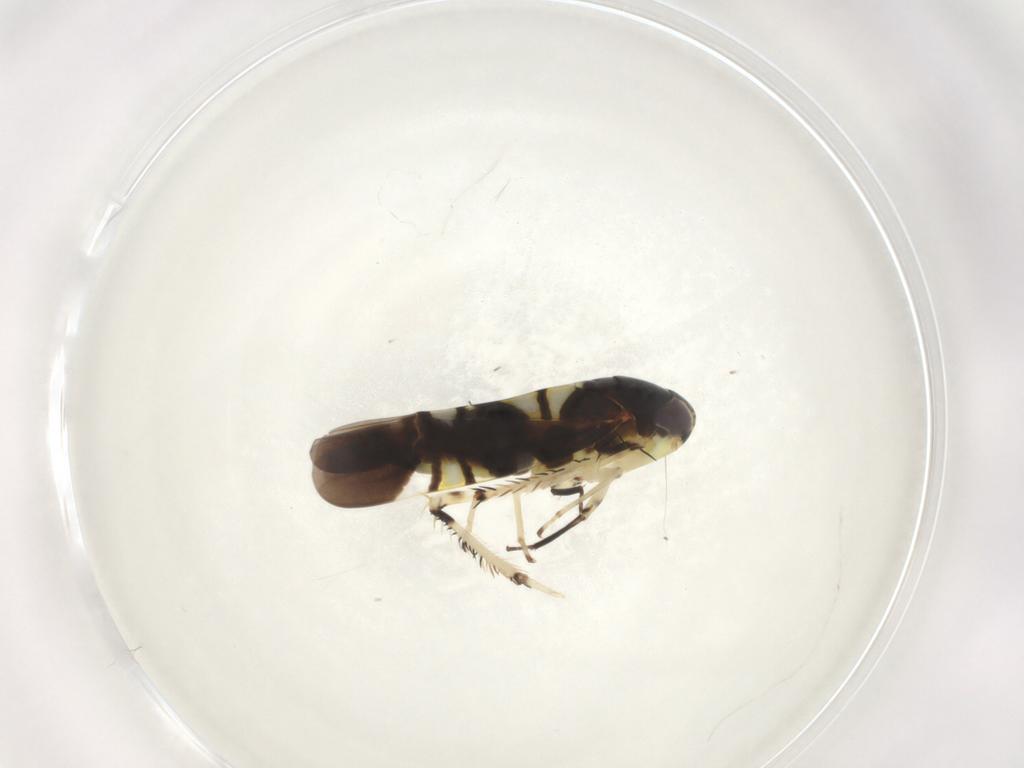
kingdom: Animalia
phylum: Arthropoda
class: Insecta
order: Hemiptera
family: Cicadellidae
